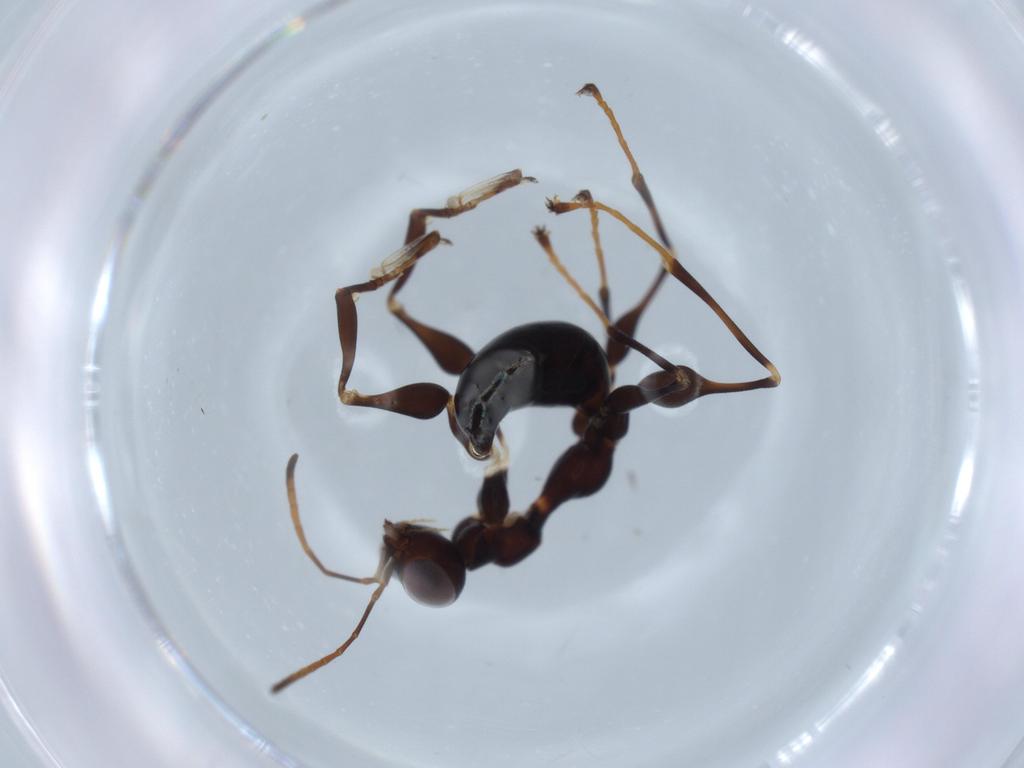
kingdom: Animalia
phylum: Arthropoda
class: Insecta
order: Hymenoptera
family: Dryinidae
